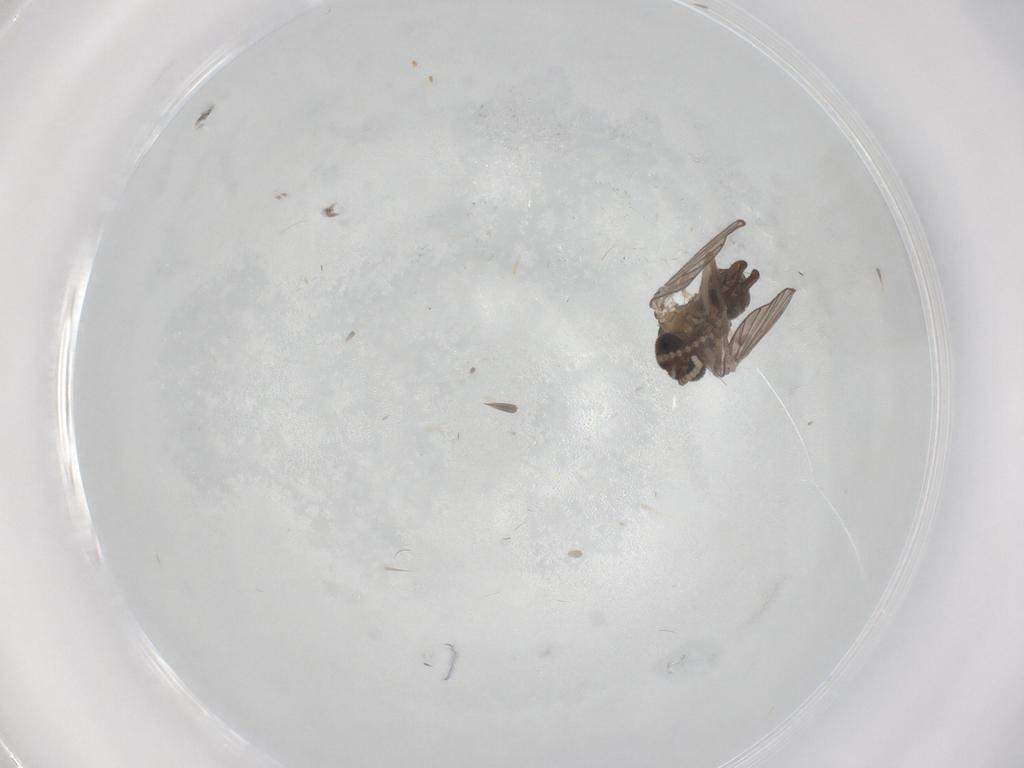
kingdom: Animalia
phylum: Arthropoda
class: Insecta
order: Diptera
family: Psychodidae
